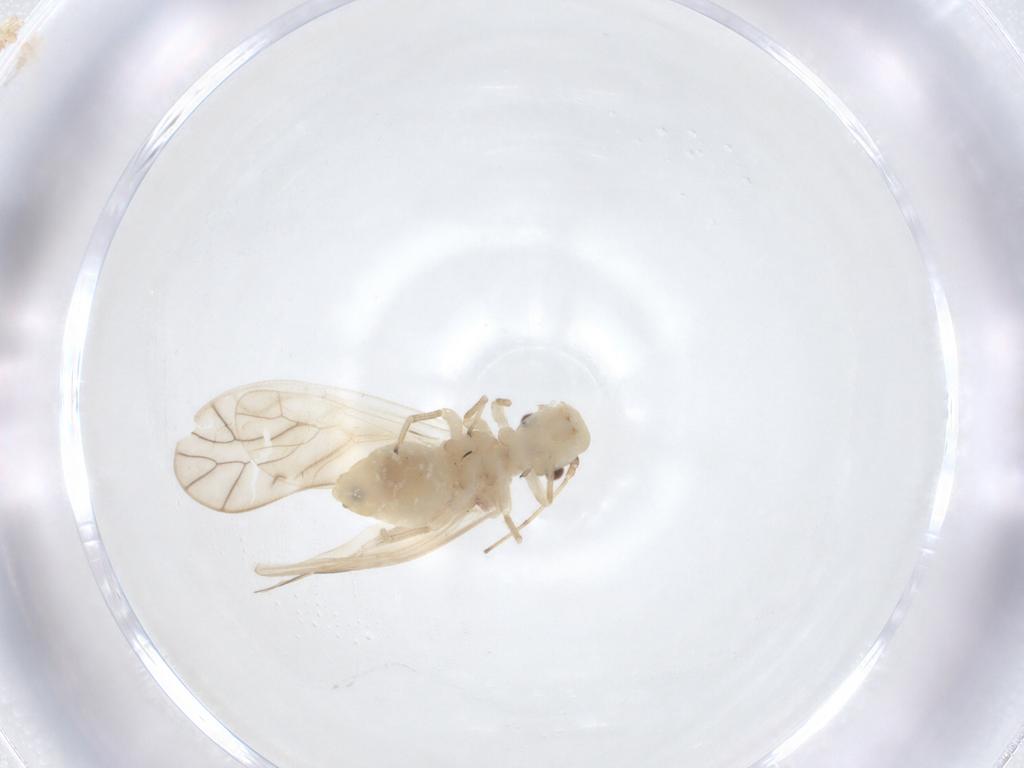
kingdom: Animalia
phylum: Arthropoda
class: Insecta
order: Psocodea
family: Caeciliusidae
